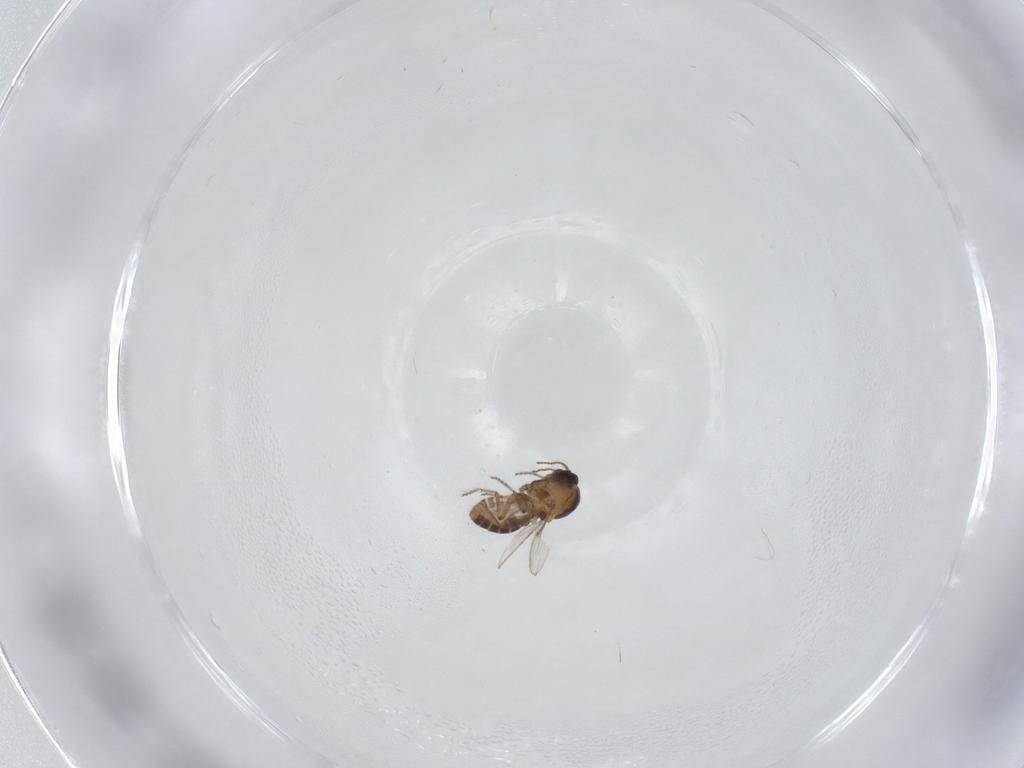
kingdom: Animalia
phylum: Arthropoda
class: Insecta
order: Diptera
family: Ceratopogonidae
